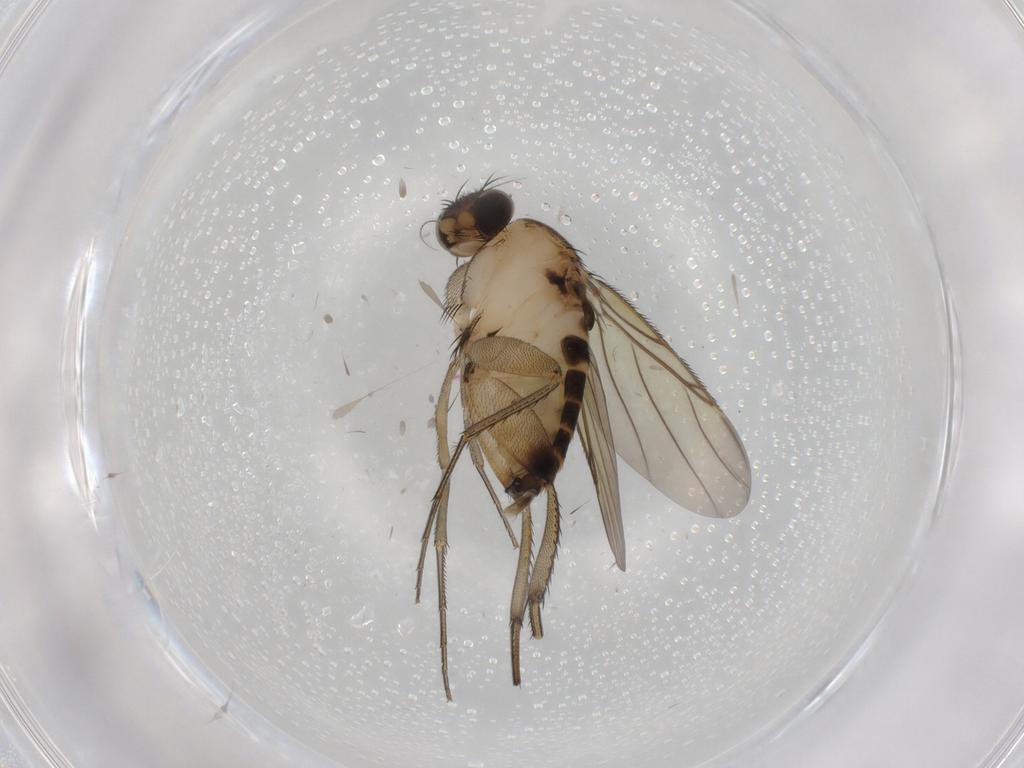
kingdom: Animalia
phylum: Arthropoda
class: Insecta
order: Diptera
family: Phoridae
